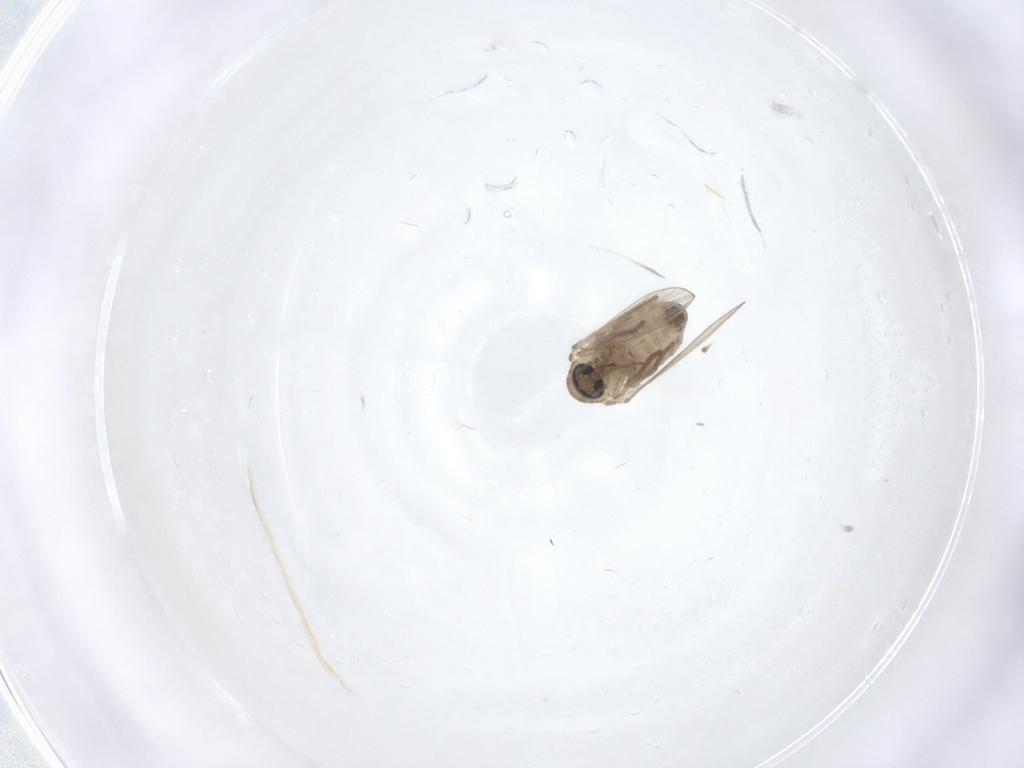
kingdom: Animalia
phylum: Arthropoda
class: Insecta
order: Diptera
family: Psychodidae
